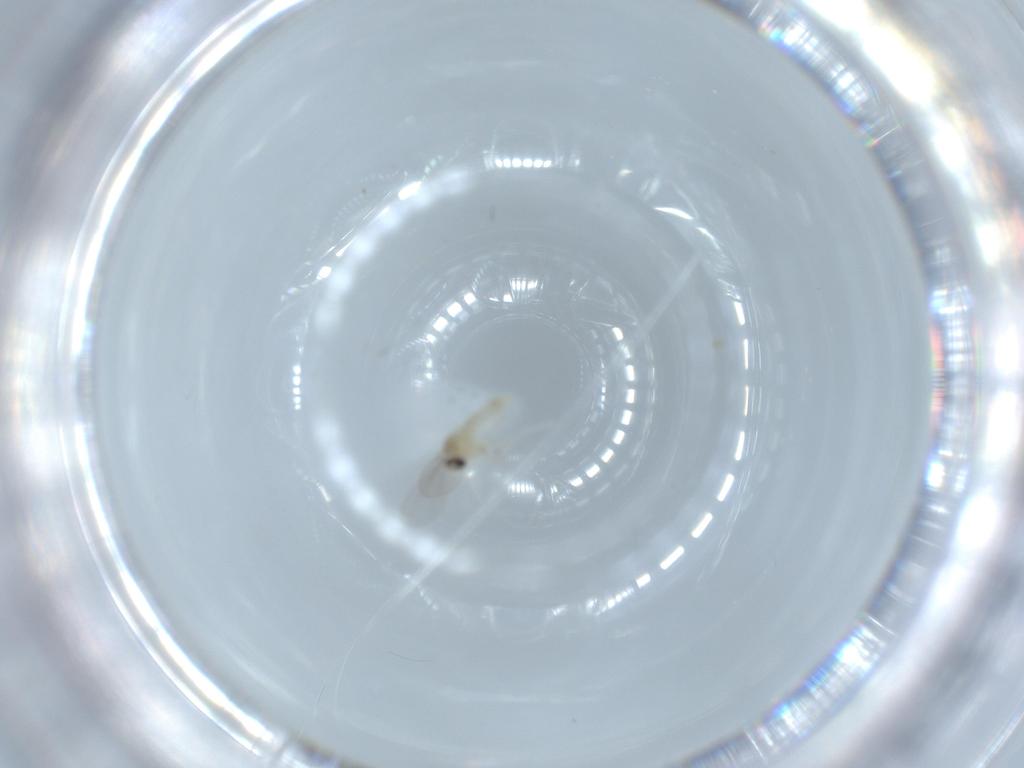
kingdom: Animalia
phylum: Arthropoda
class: Insecta
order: Diptera
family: Cecidomyiidae
